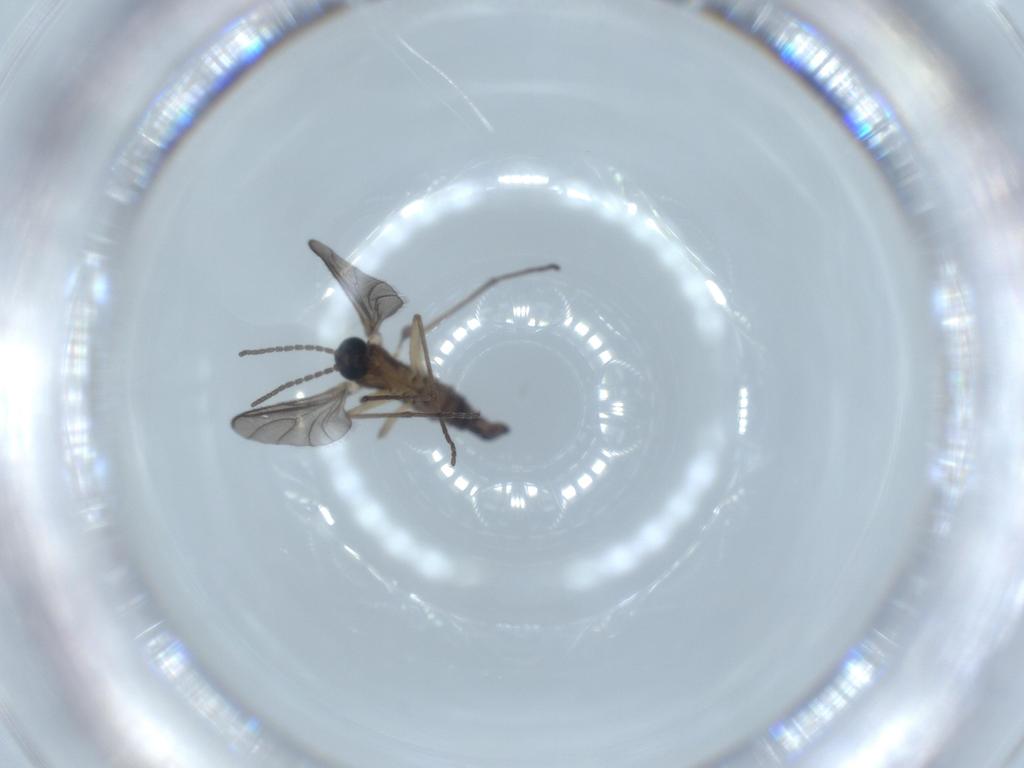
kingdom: Animalia
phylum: Arthropoda
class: Insecta
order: Diptera
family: Sciaridae
